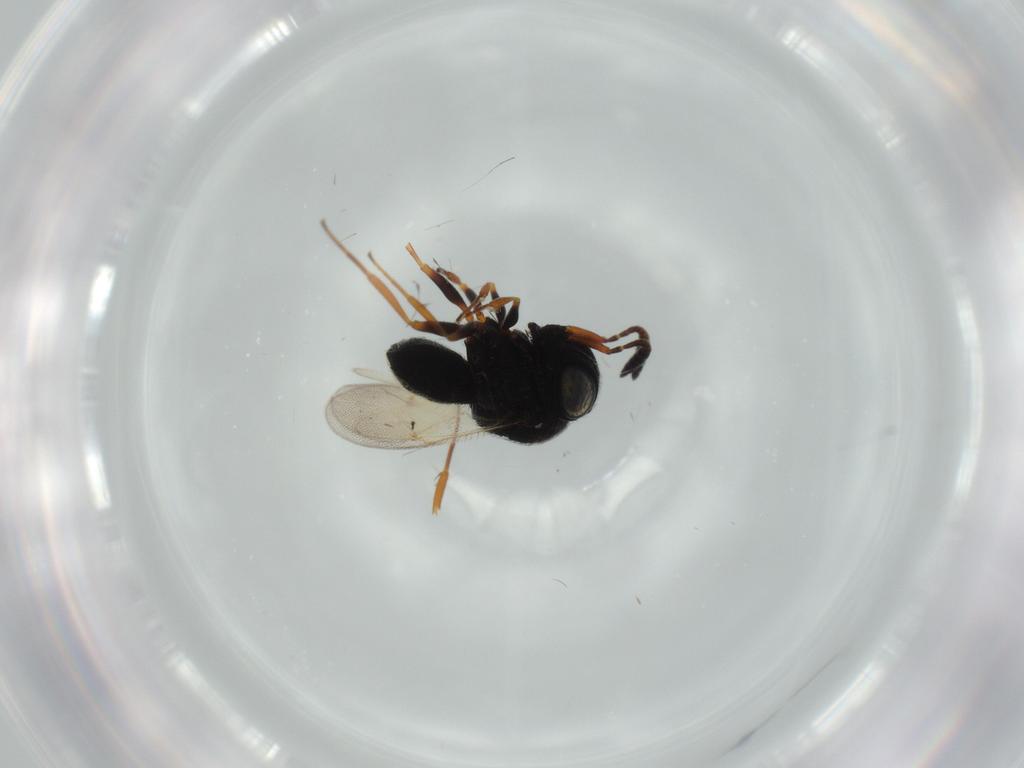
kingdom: Animalia
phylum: Arthropoda
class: Insecta
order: Hymenoptera
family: Scelionidae
